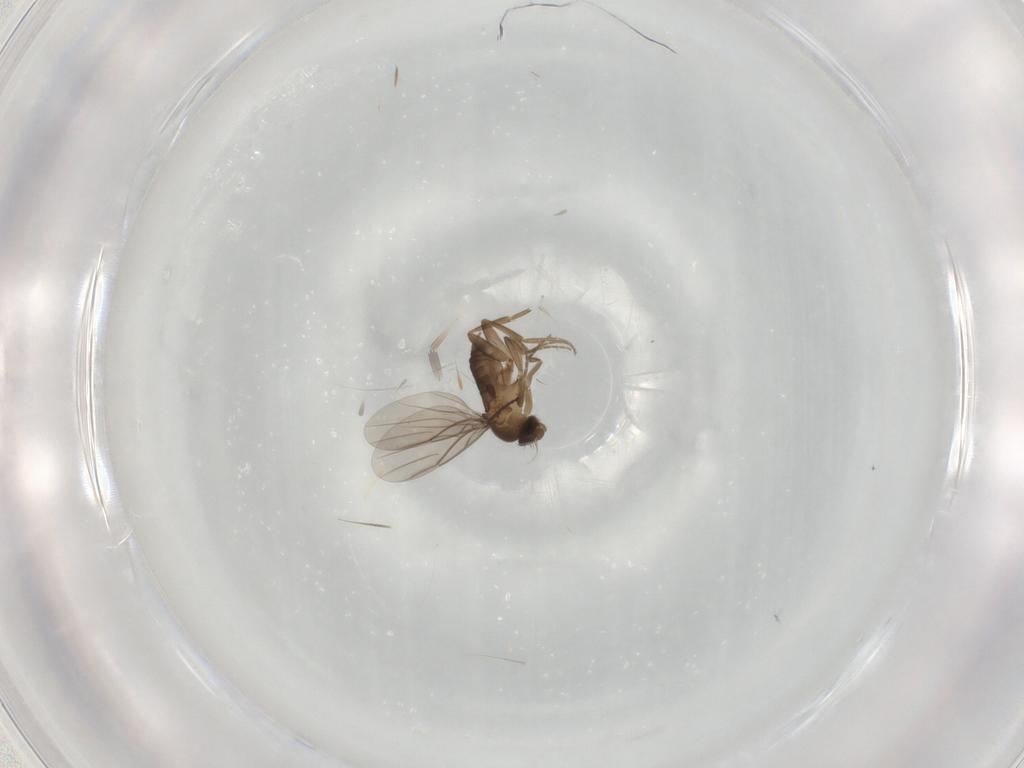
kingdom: Animalia
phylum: Arthropoda
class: Insecta
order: Diptera
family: Phoridae
